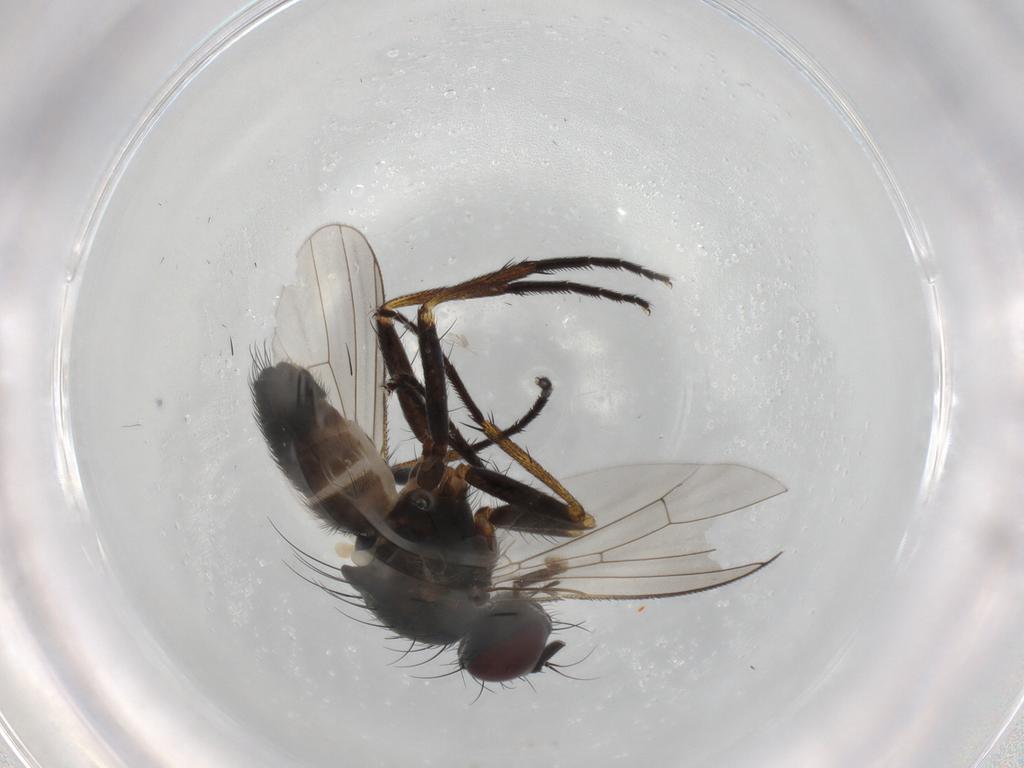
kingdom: Animalia
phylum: Arthropoda
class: Insecta
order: Diptera
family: Muscidae
